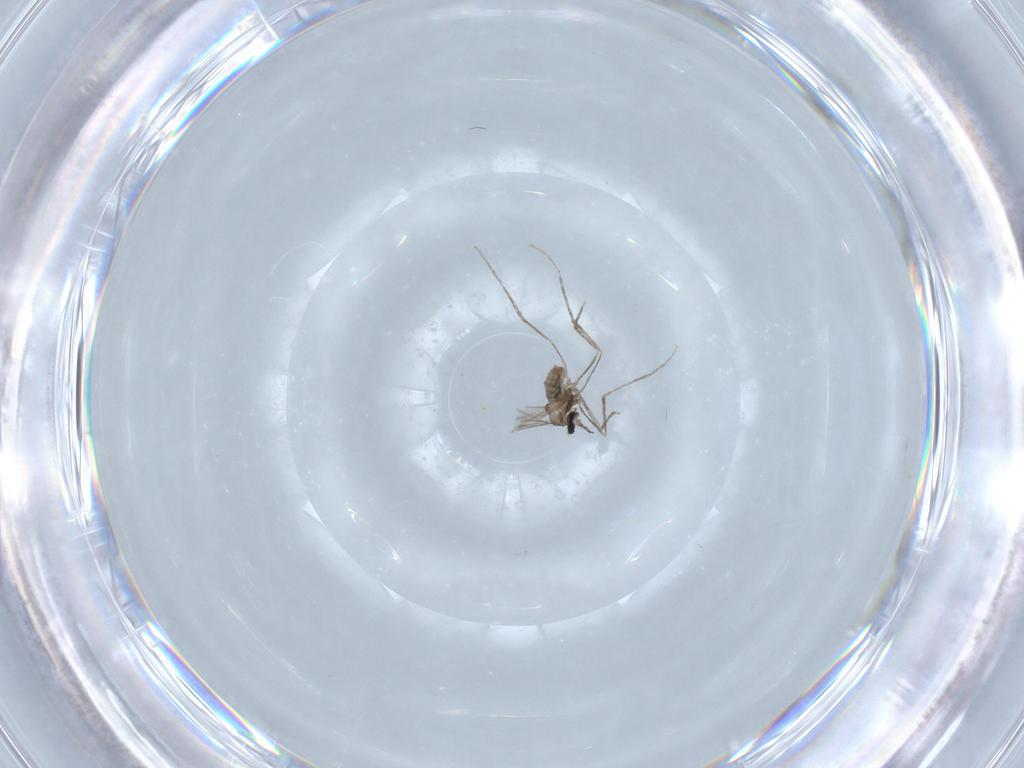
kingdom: Animalia
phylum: Arthropoda
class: Insecta
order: Diptera
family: Cecidomyiidae
